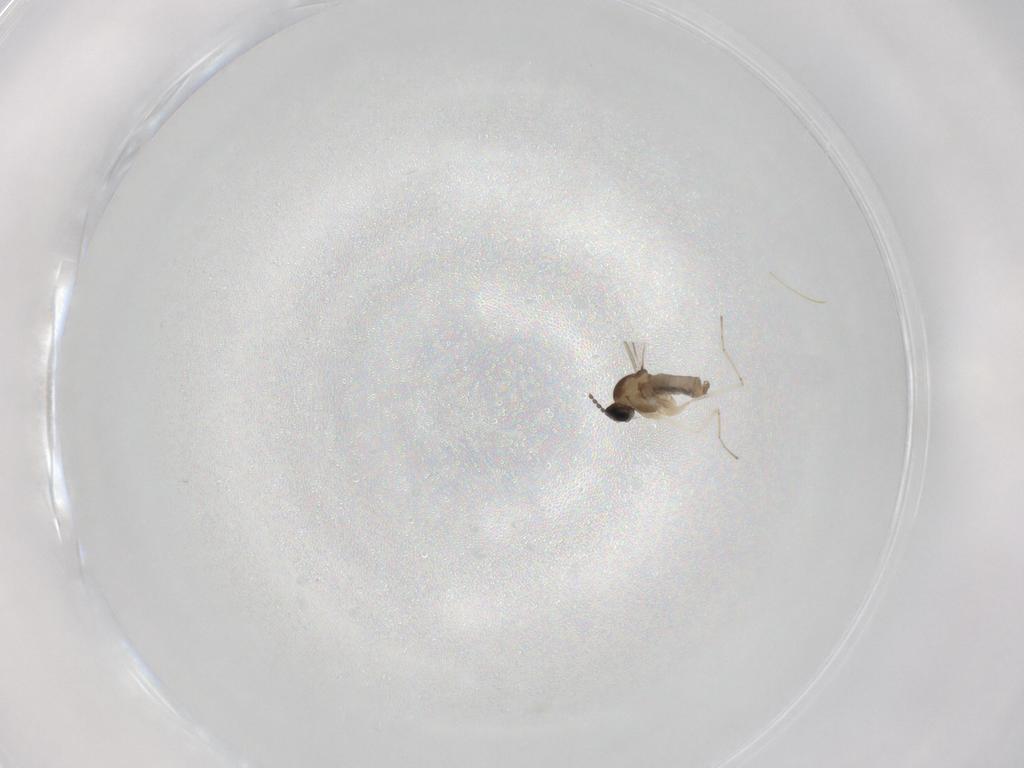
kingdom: Animalia
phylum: Arthropoda
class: Insecta
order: Diptera
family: Cecidomyiidae
